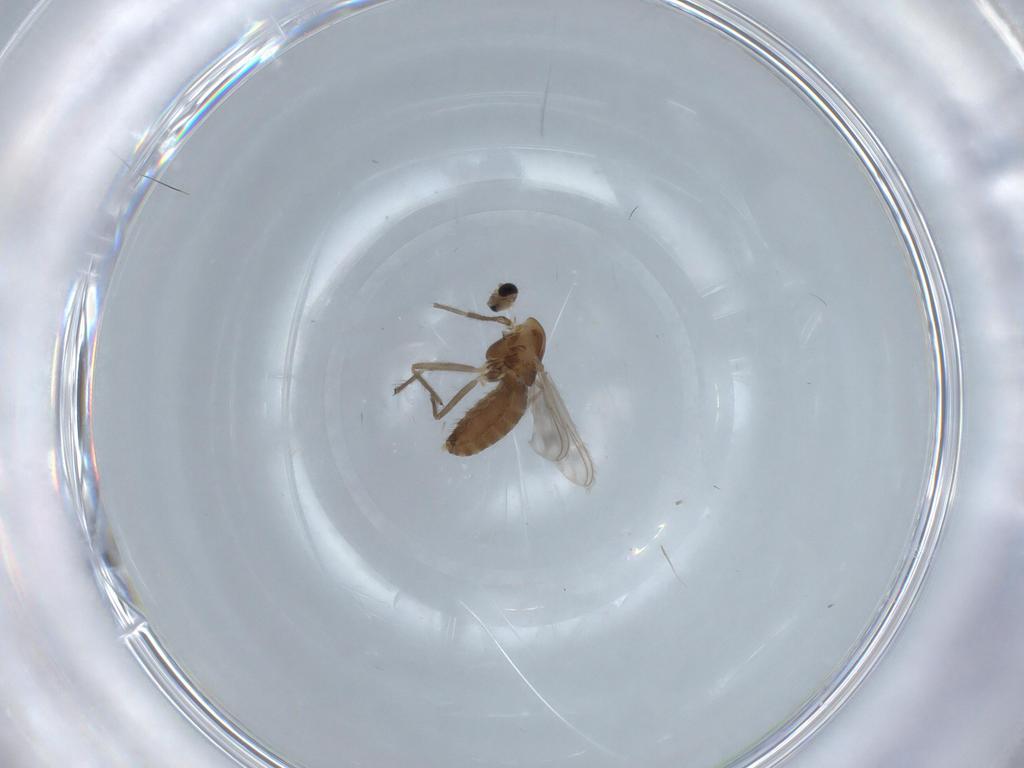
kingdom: Animalia
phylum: Arthropoda
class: Insecta
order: Diptera
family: Chironomidae
